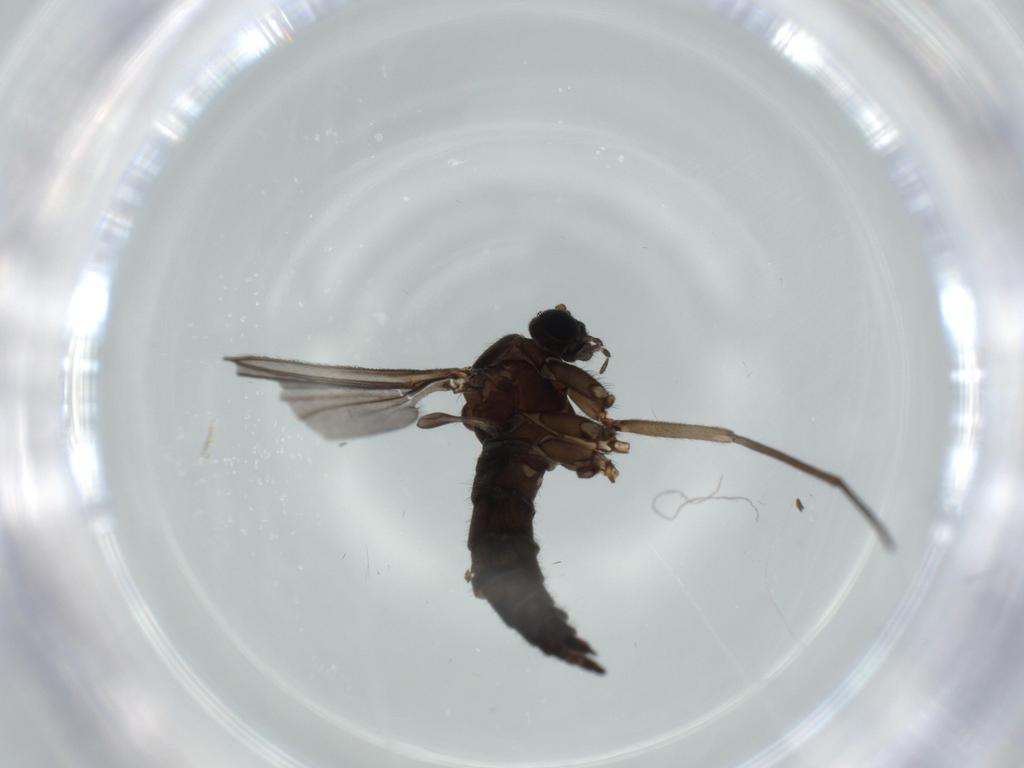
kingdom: Animalia
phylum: Arthropoda
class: Insecta
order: Diptera
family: Sciaridae
